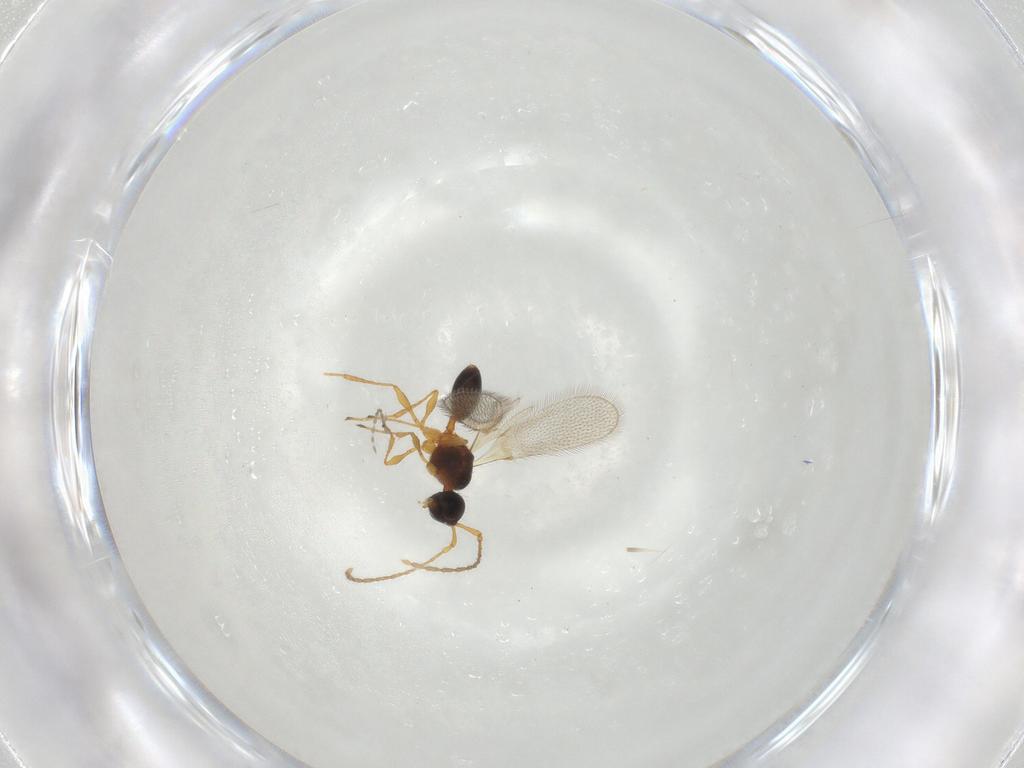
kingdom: Animalia
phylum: Arthropoda
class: Insecta
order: Hymenoptera
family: Diapriidae
